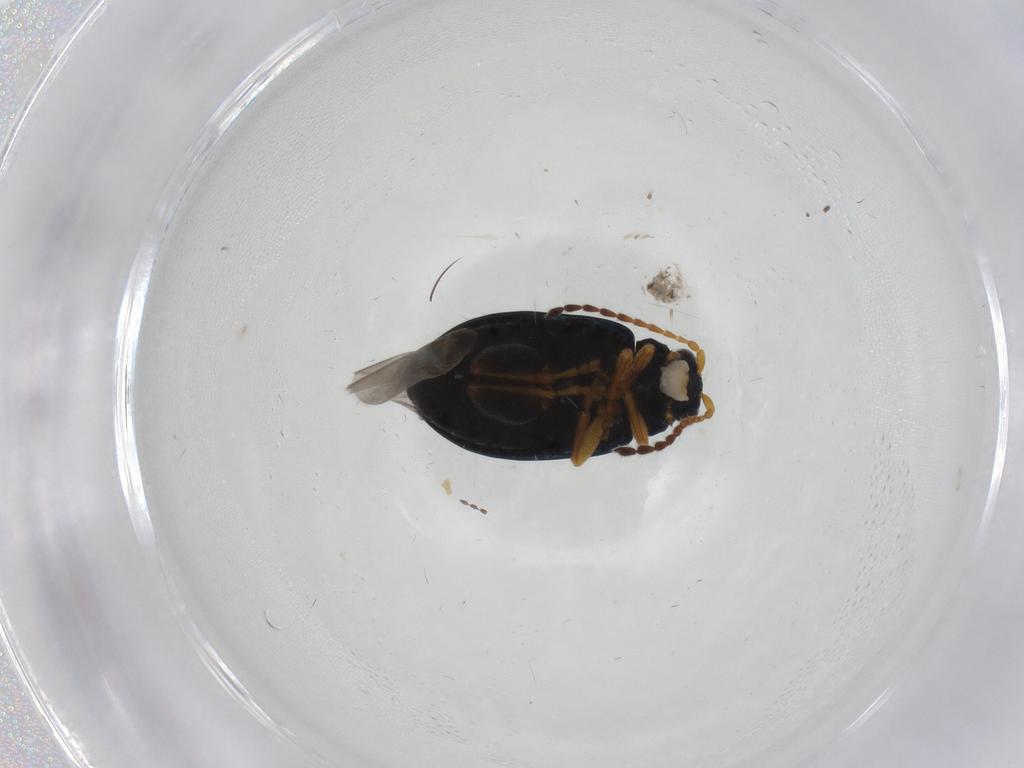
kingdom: Animalia
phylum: Arthropoda
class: Insecta
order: Coleoptera
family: Chrysomelidae
